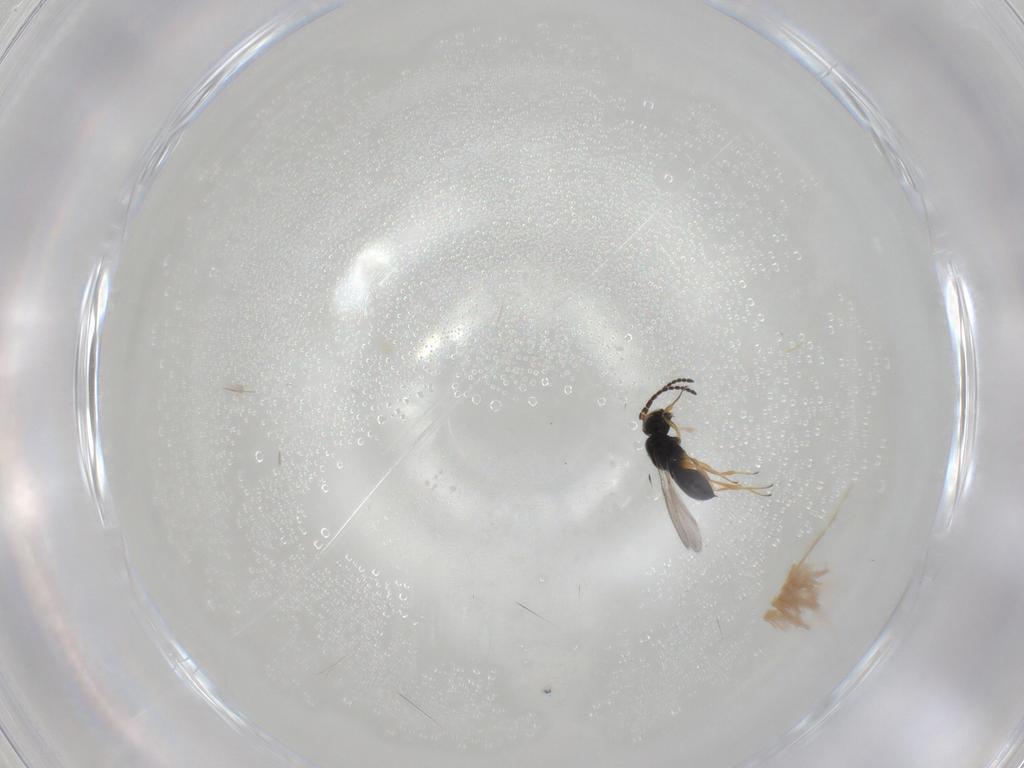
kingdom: Animalia
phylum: Arthropoda
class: Insecta
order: Hymenoptera
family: Scelionidae
